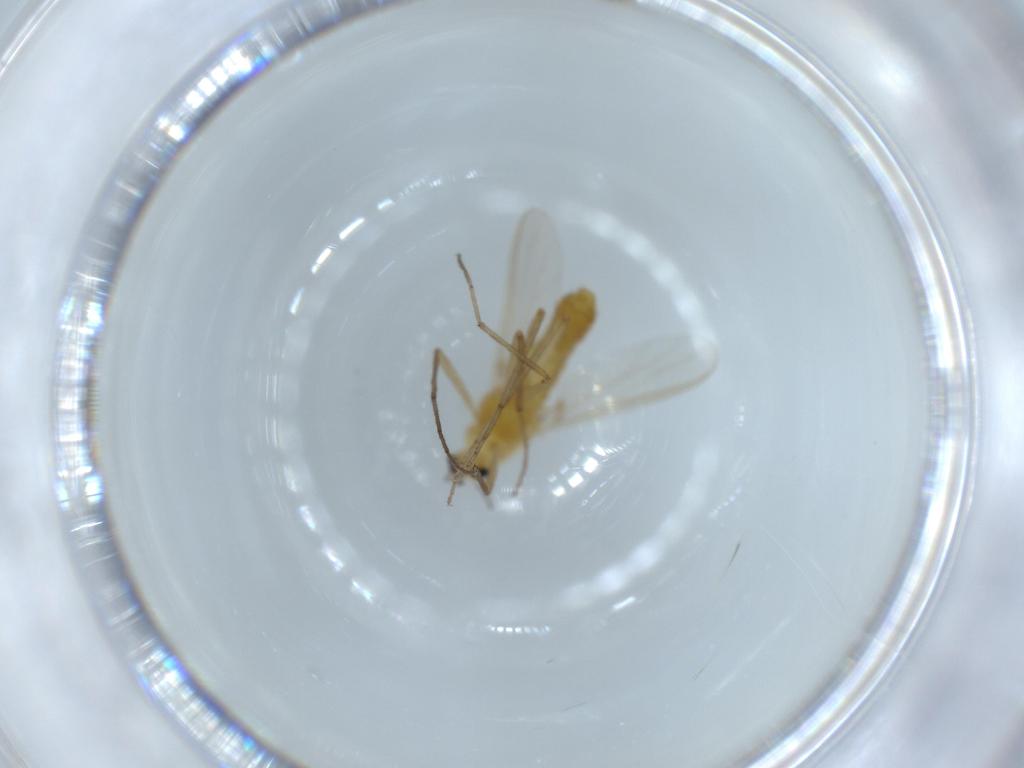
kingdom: Animalia
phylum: Arthropoda
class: Insecta
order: Diptera
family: Chironomidae
